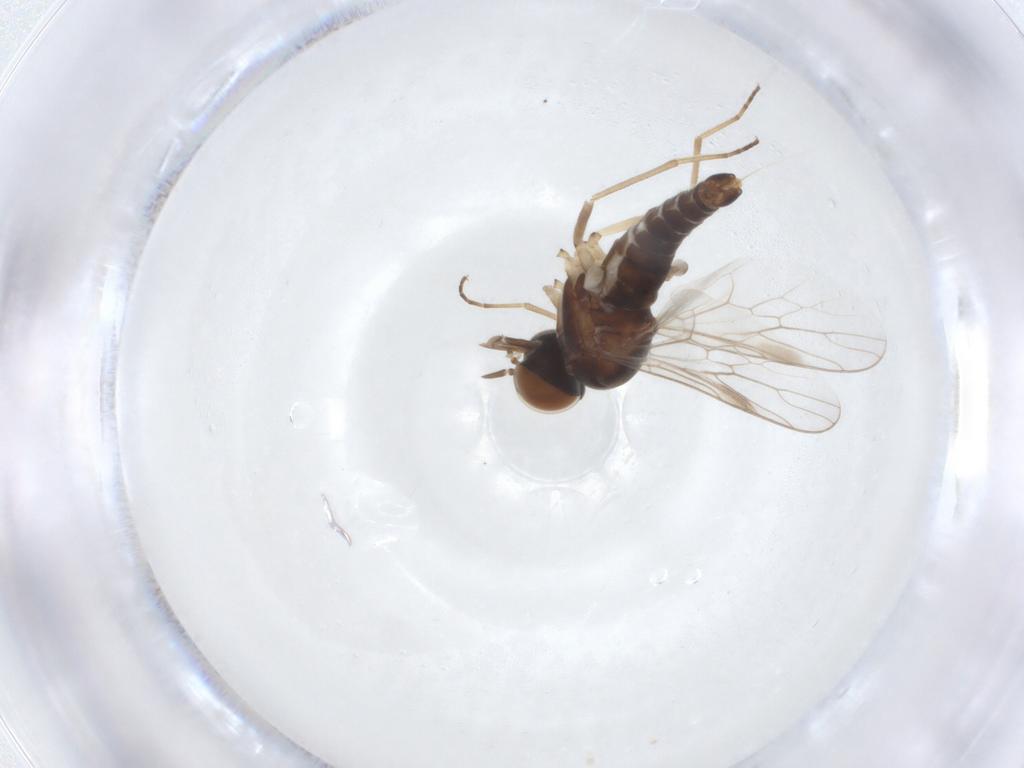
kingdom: Animalia
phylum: Arthropoda
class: Insecta
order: Diptera
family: Scenopinidae
